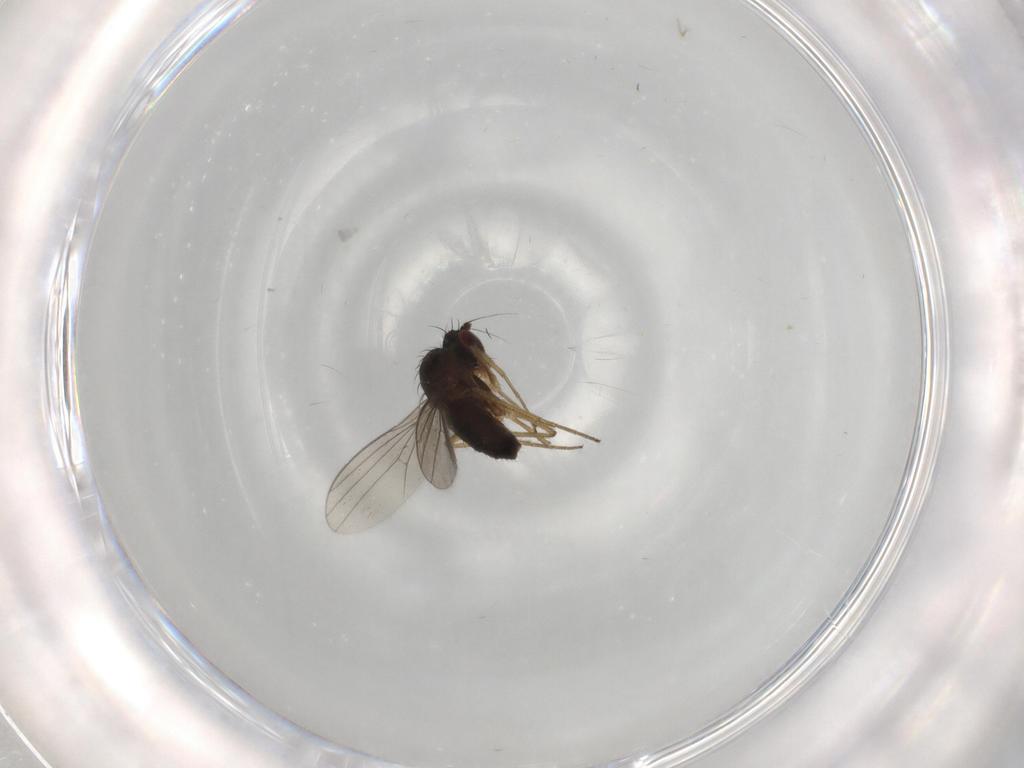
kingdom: Animalia
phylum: Arthropoda
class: Insecta
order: Diptera
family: Dolichopodidae
